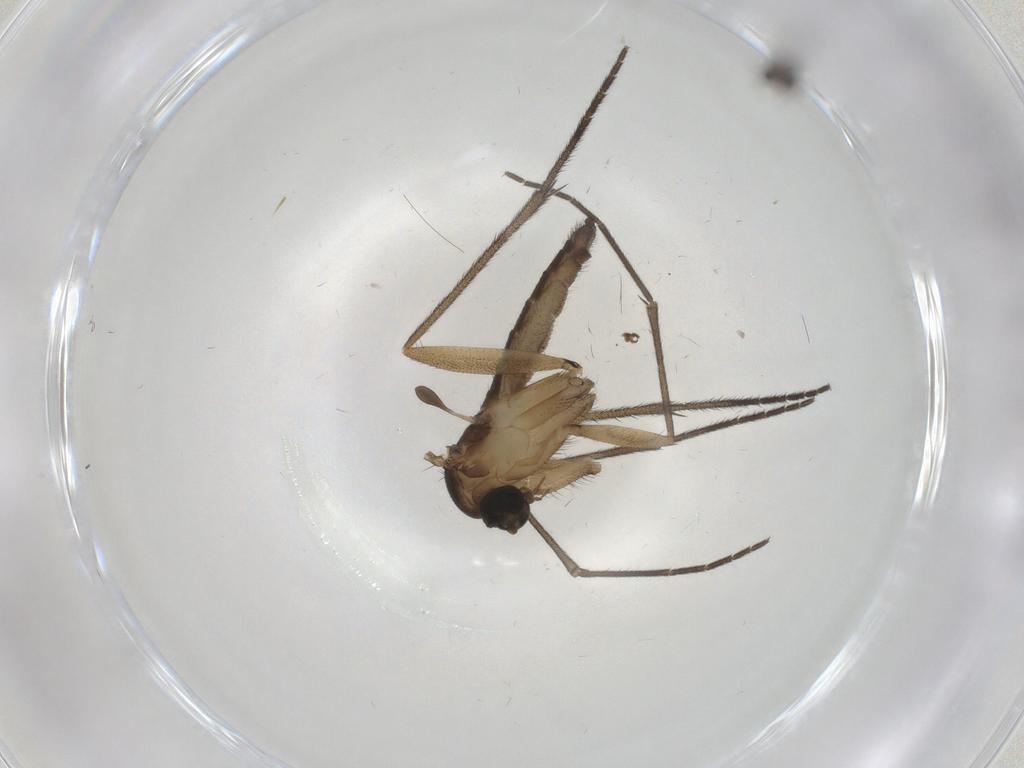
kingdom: Animalia
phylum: Arthropoda
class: Insecta
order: Diptera
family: Sciaridae
